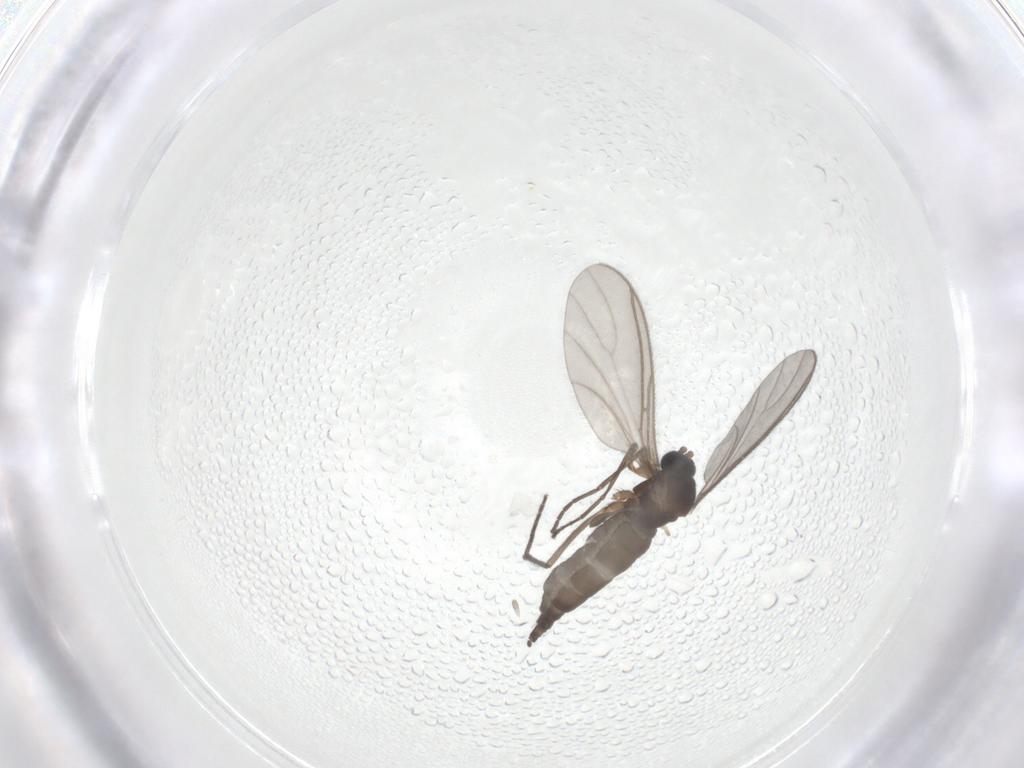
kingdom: Animalia
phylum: Arthropoda
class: Insecta
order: Diptera
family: Sciaridae
